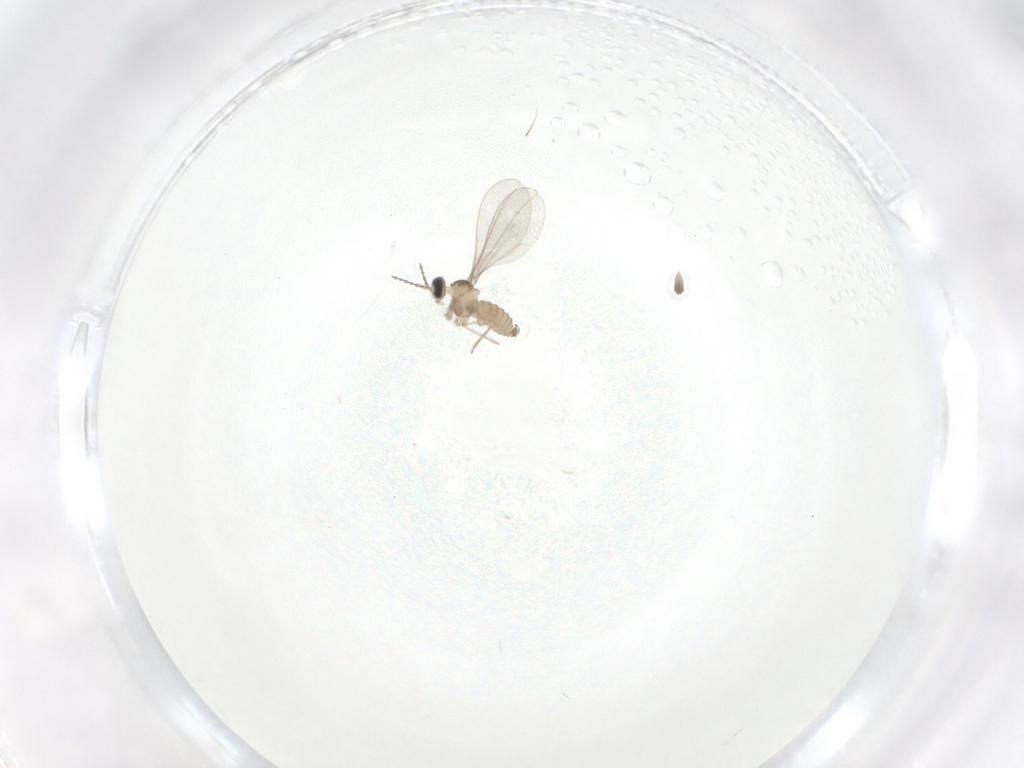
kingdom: Animalia
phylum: Arthropoda
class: Insecta
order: Diptera
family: Cecidomyiidae
